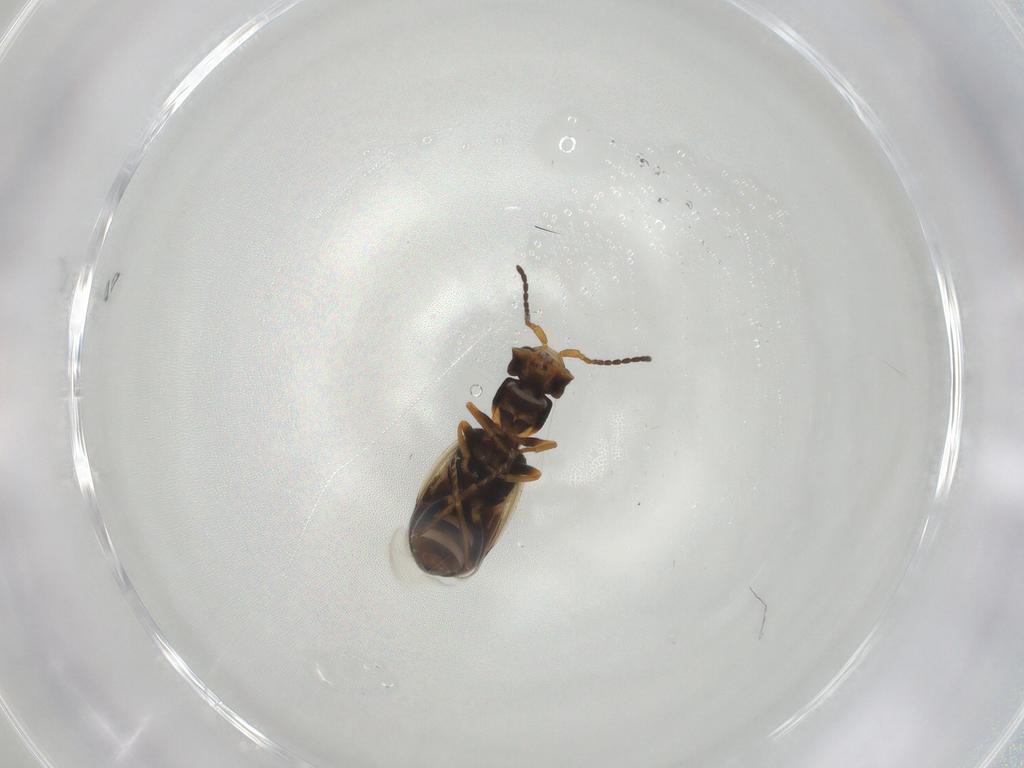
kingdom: Animalia
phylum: Arthropoda
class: Insecta
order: Coleoptera
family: Melyridae
